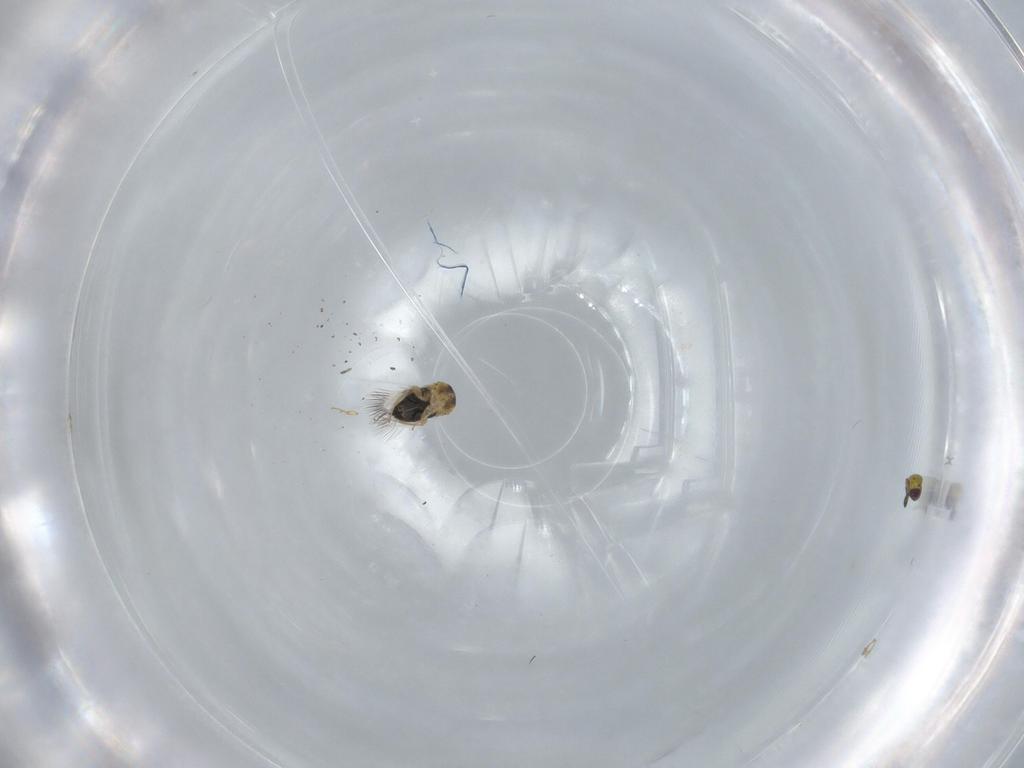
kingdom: Animalia
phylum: Arthropoda
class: Insecta
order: Hymenoptera
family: Signiphoridae
